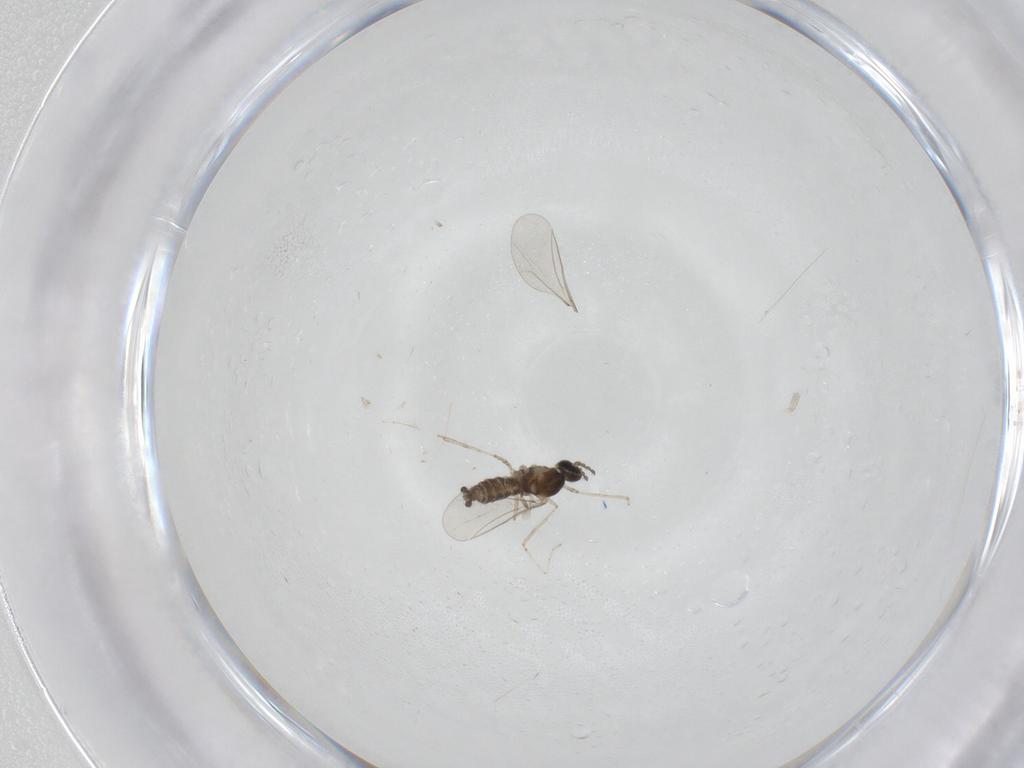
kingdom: Animalia
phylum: Arthropoda
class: Insecta
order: Diptera
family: Cecidomyiidae
